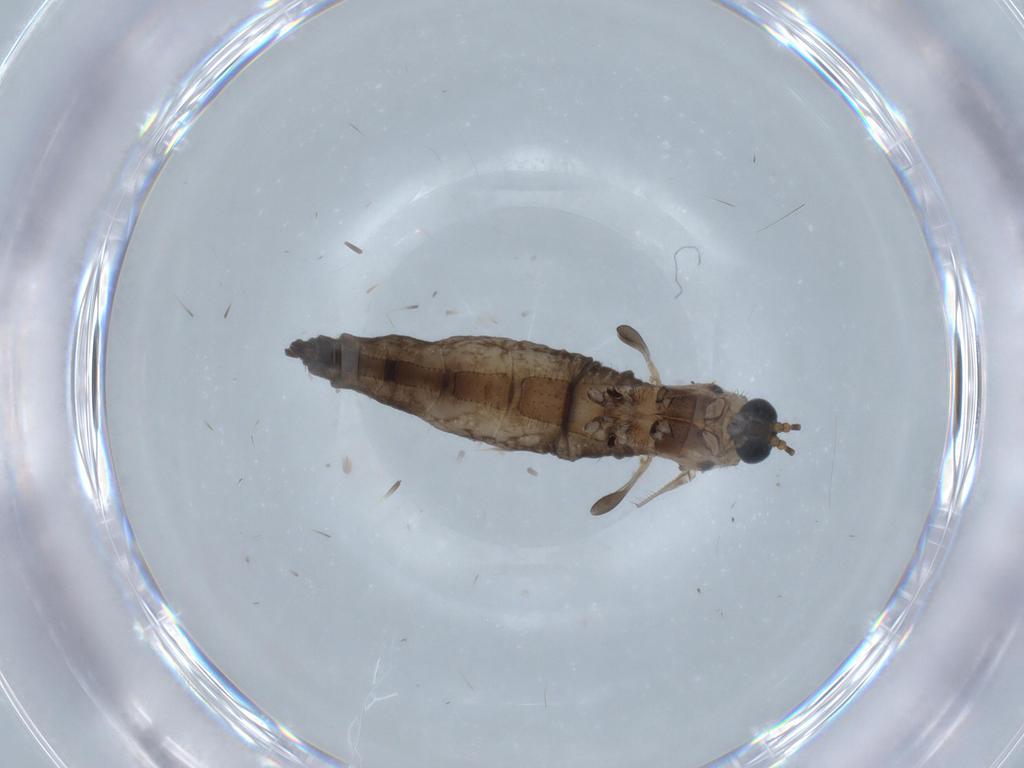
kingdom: Animalia
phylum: Arthropoda
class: Insecta
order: Diptera
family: Sciaridae
